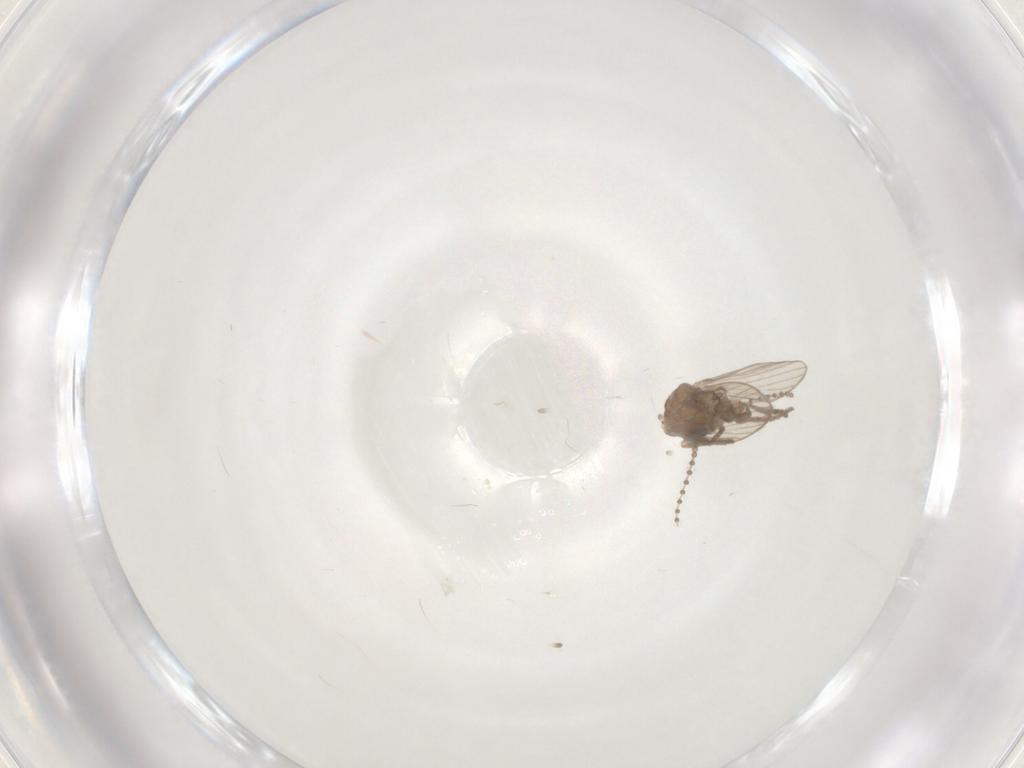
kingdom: Animalia
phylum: Arthropoda
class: Insecta
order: Diptera
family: Psychodidae
